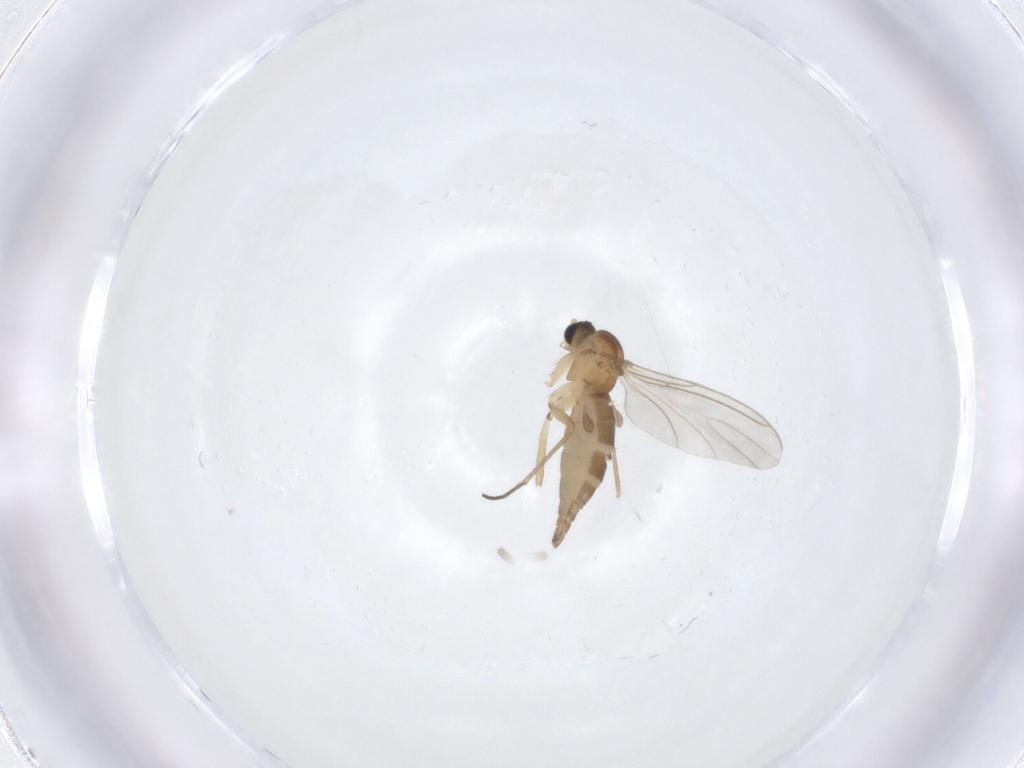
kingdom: Animalia
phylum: Arthropoda
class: Insecta
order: Diptera
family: Sciaridae
